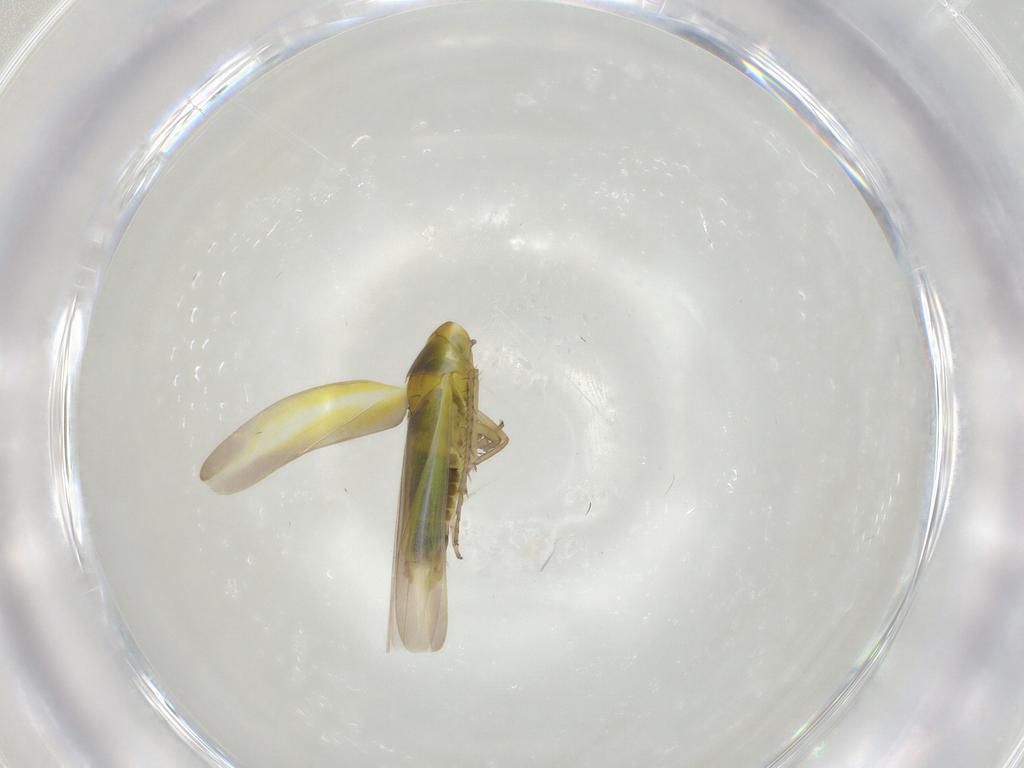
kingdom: Animalia
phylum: Arthropoda
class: Insecta
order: Hemiptera
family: Cicadellidae
